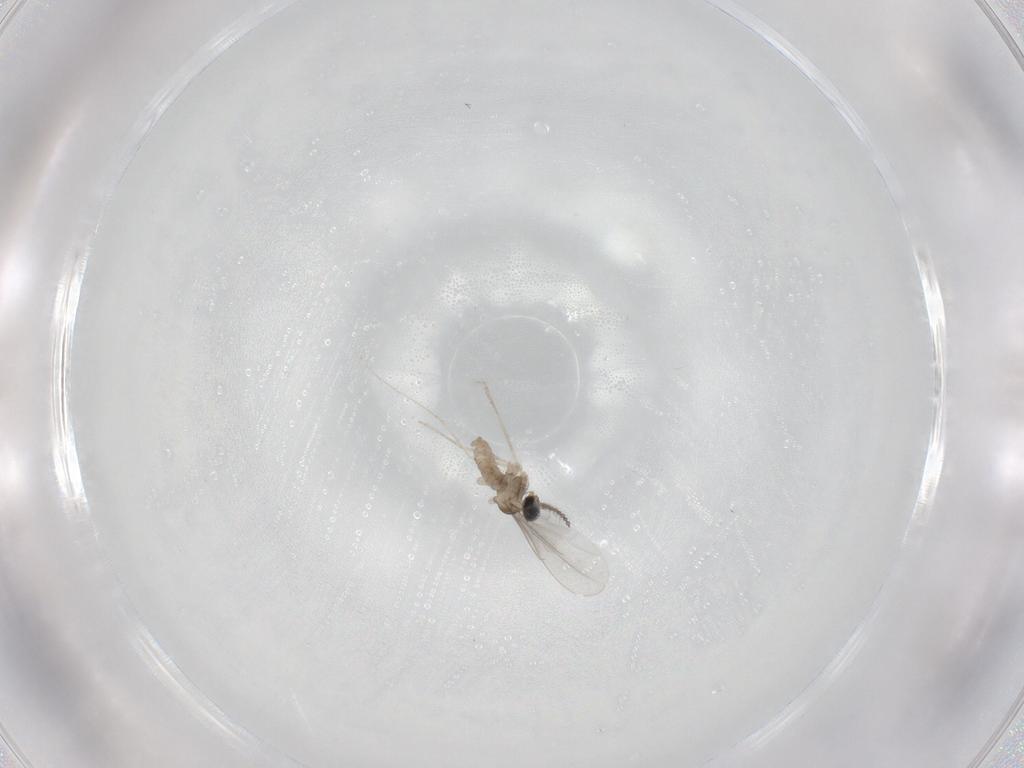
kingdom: Animalia
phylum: Arthropoda
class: Insecta
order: Diptera
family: Cecidomyiidae
